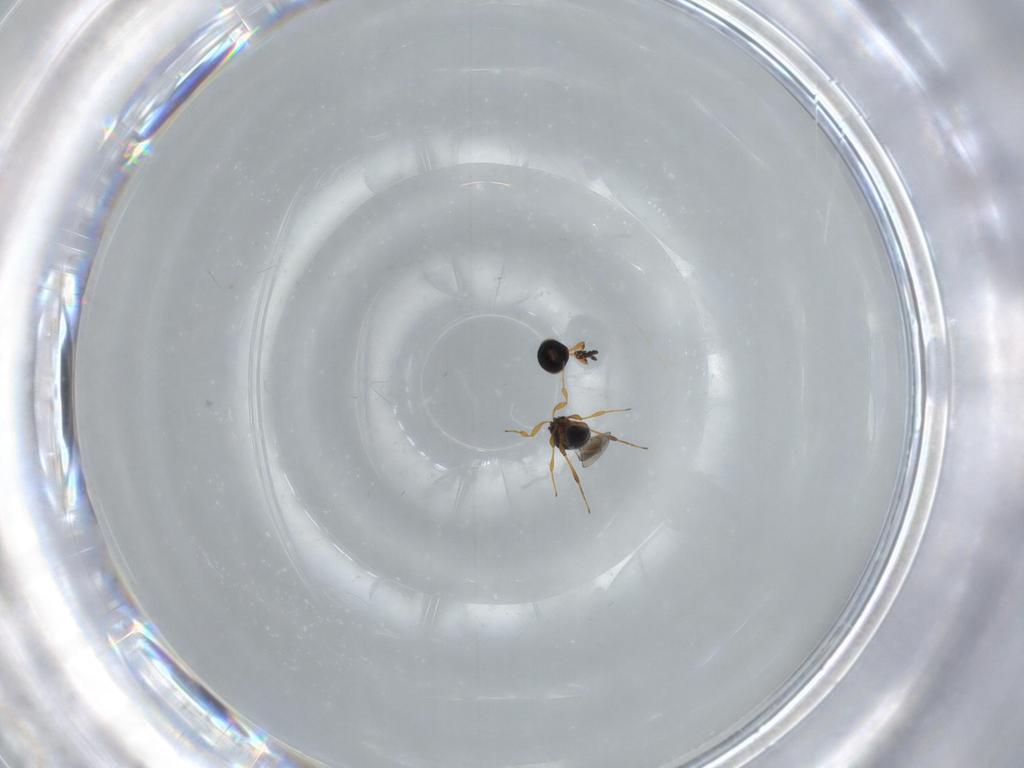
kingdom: Animalia
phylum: Arthropoda
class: Insecta
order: Hymenoptera
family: Platygastridae
